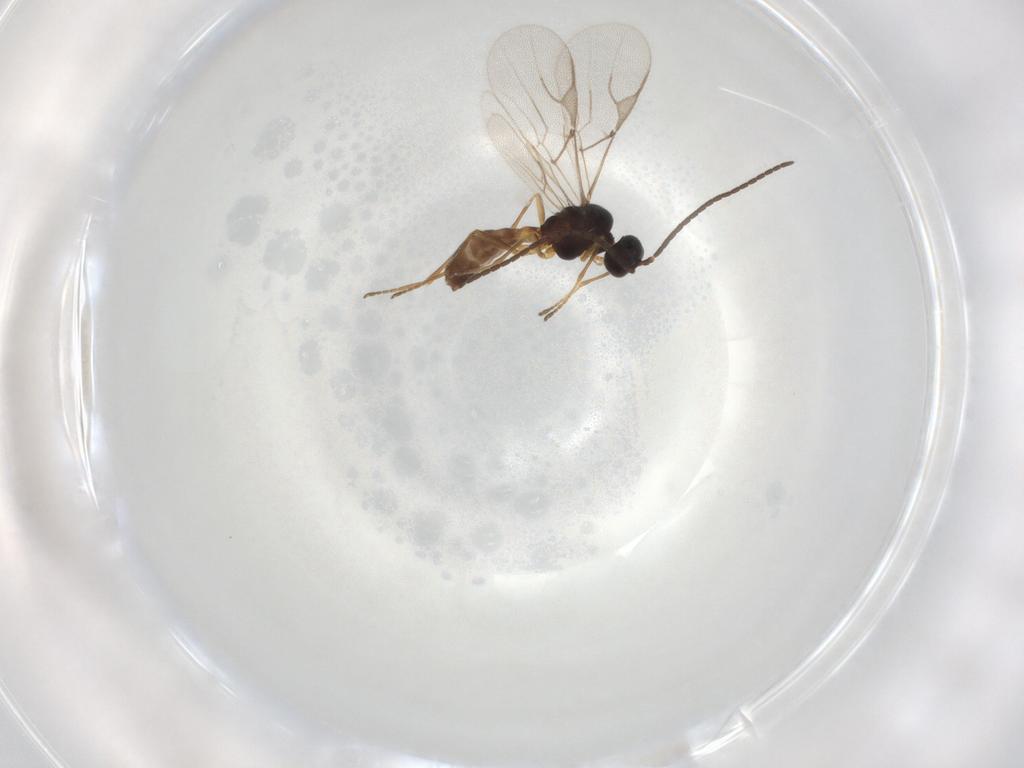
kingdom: Animalia
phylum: Arthropoda
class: Insecta
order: Hymenoptera
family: Braconidae
